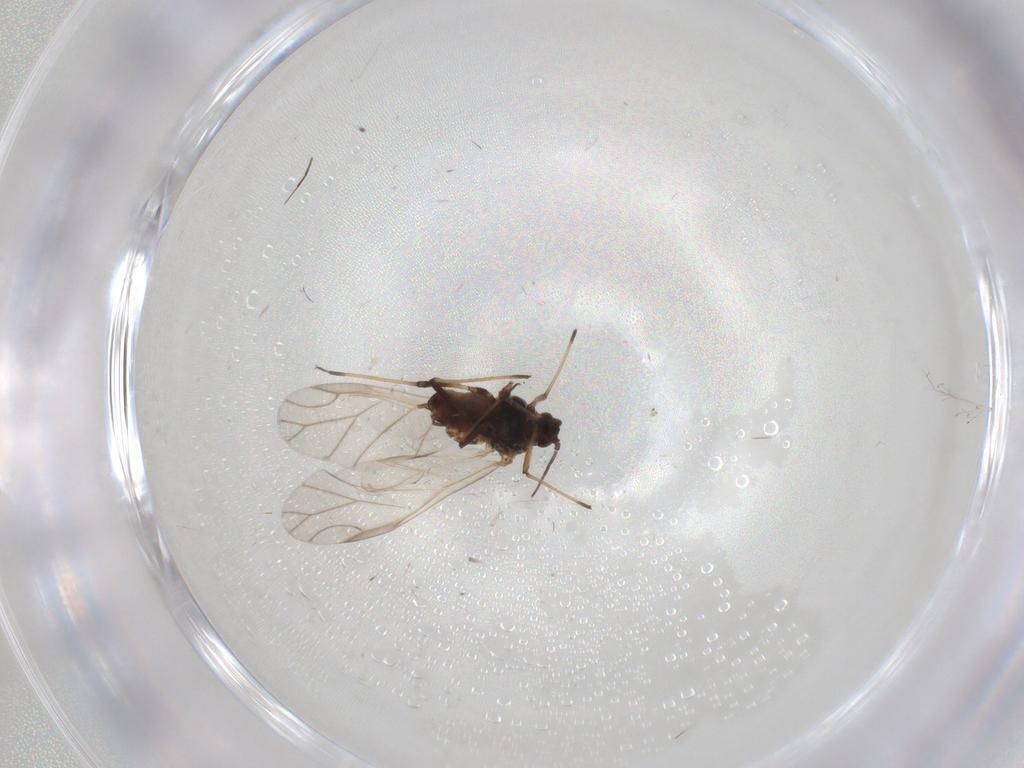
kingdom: Animalia
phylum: Arthropoda
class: Insecta
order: Hemiptera
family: Aphididae
